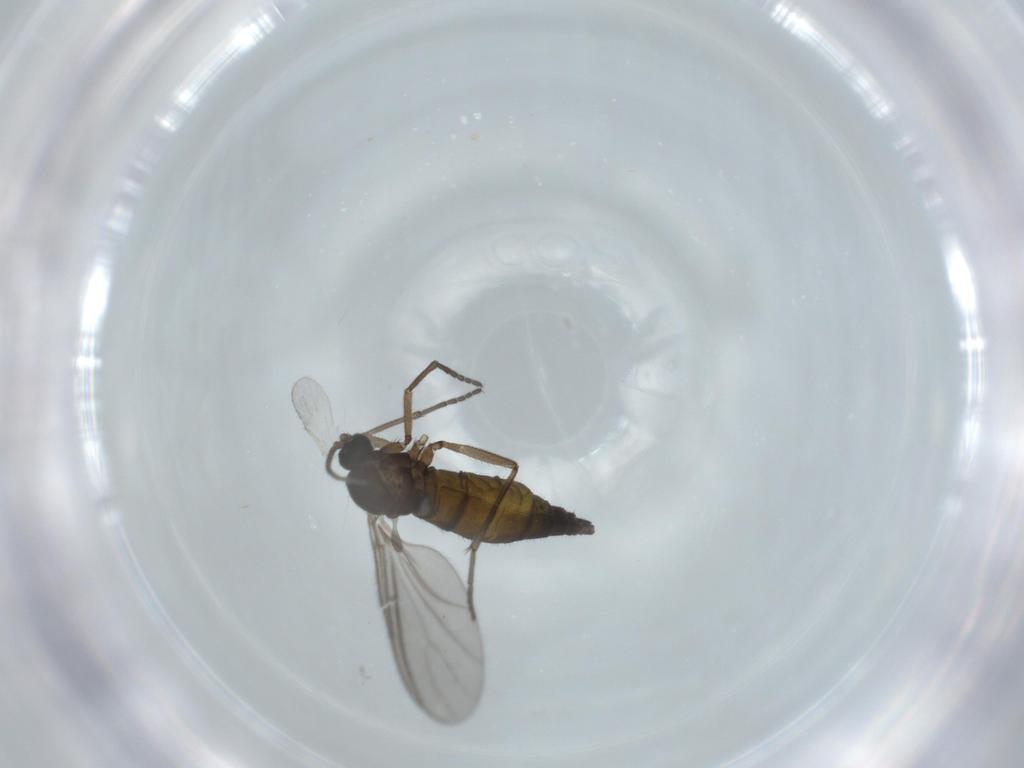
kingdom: Animalia
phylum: Arthropoda
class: Insecta
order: Diptera
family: Sciaridae
